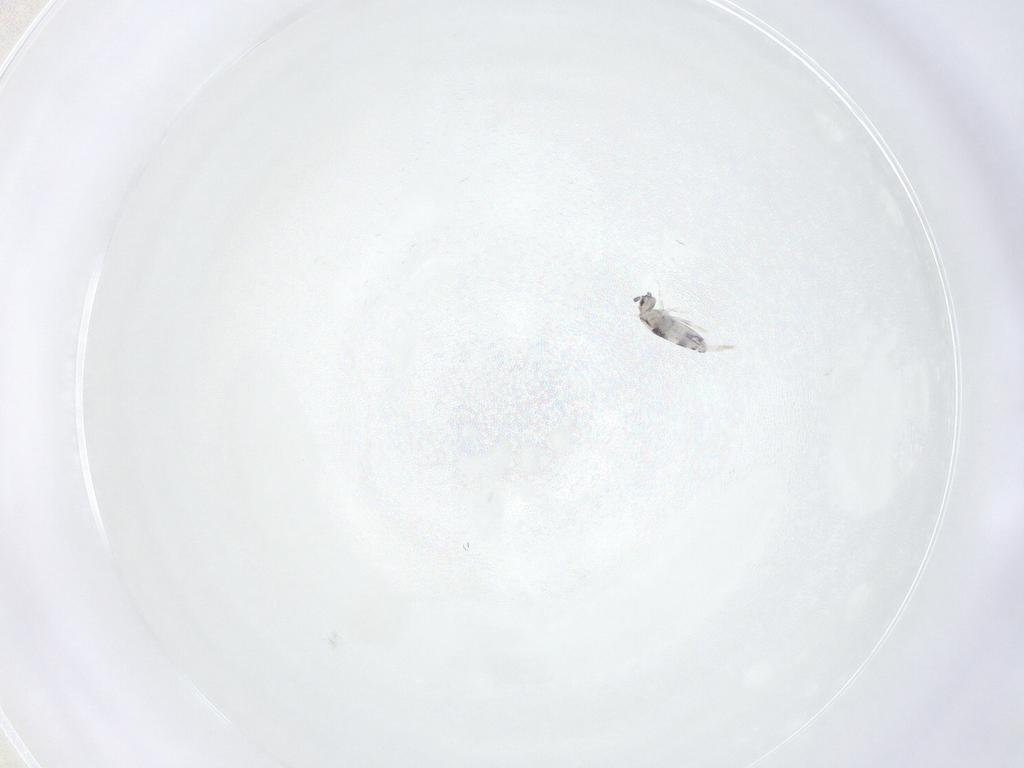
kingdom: Animalia
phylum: Arthropoda
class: Collembola
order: Entomobryomorpha
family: Entomobryidae
